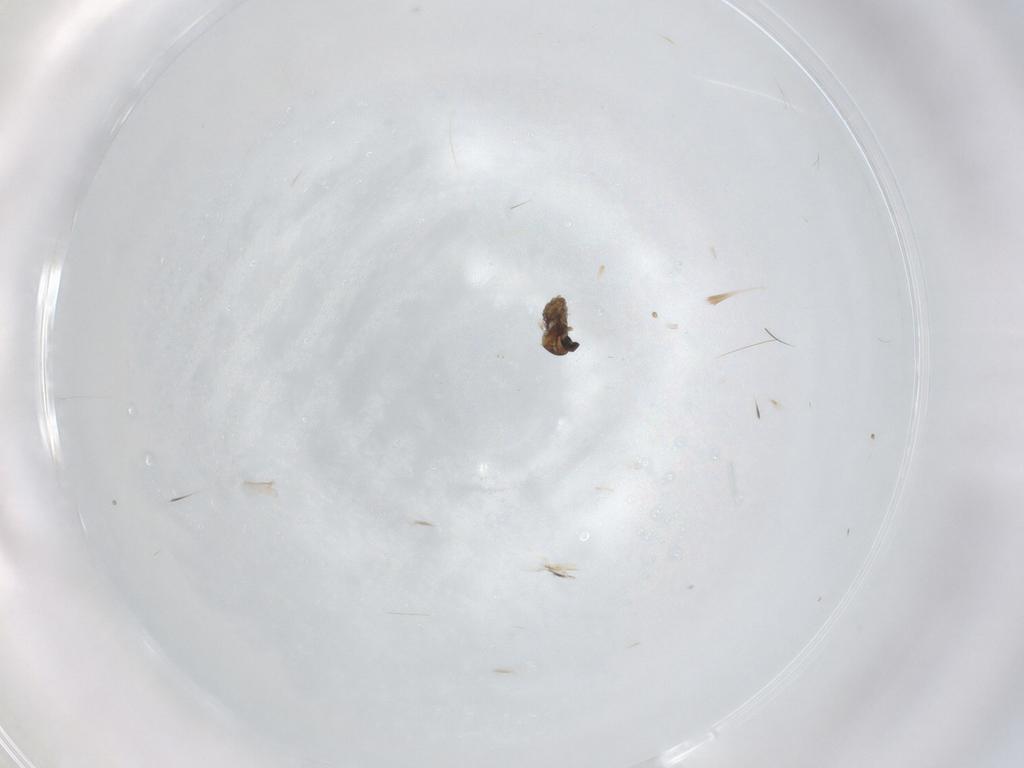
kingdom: Animalia
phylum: Arthropoda
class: Insecta
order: Diptera
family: Cecidomyiidae
